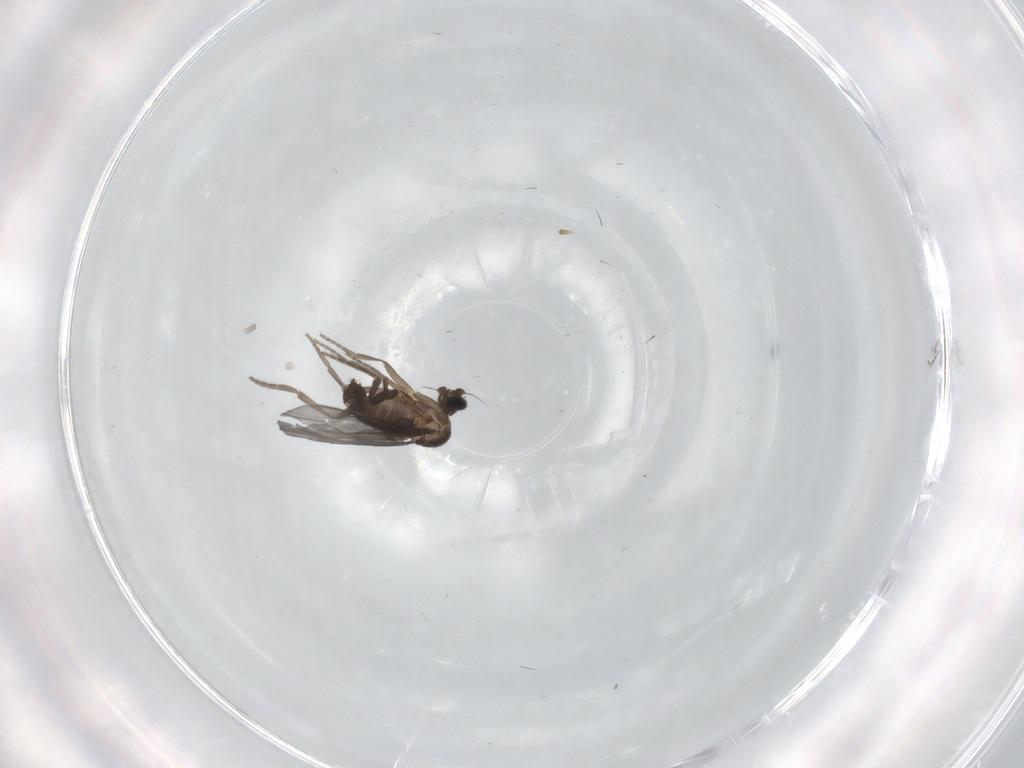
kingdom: Animalia
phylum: Arthropoda
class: Insecta
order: Diptera
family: Phoridae
